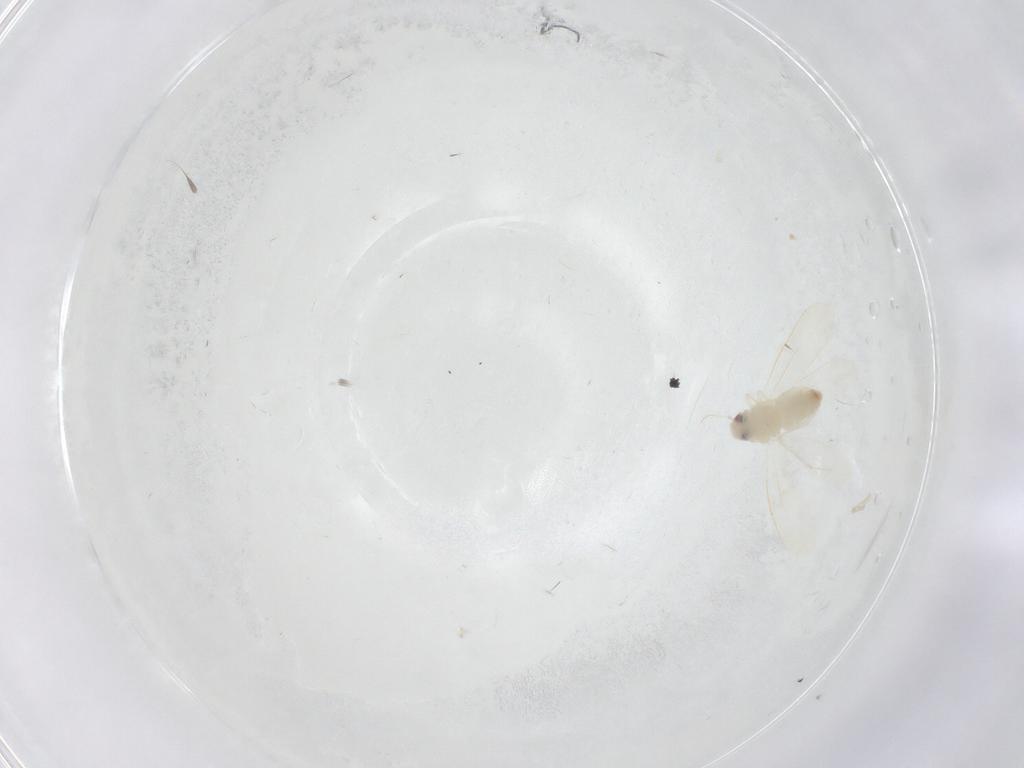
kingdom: Animalia
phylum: Arthropoda
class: Insecta
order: Hemiptera
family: Aleyrodidae
